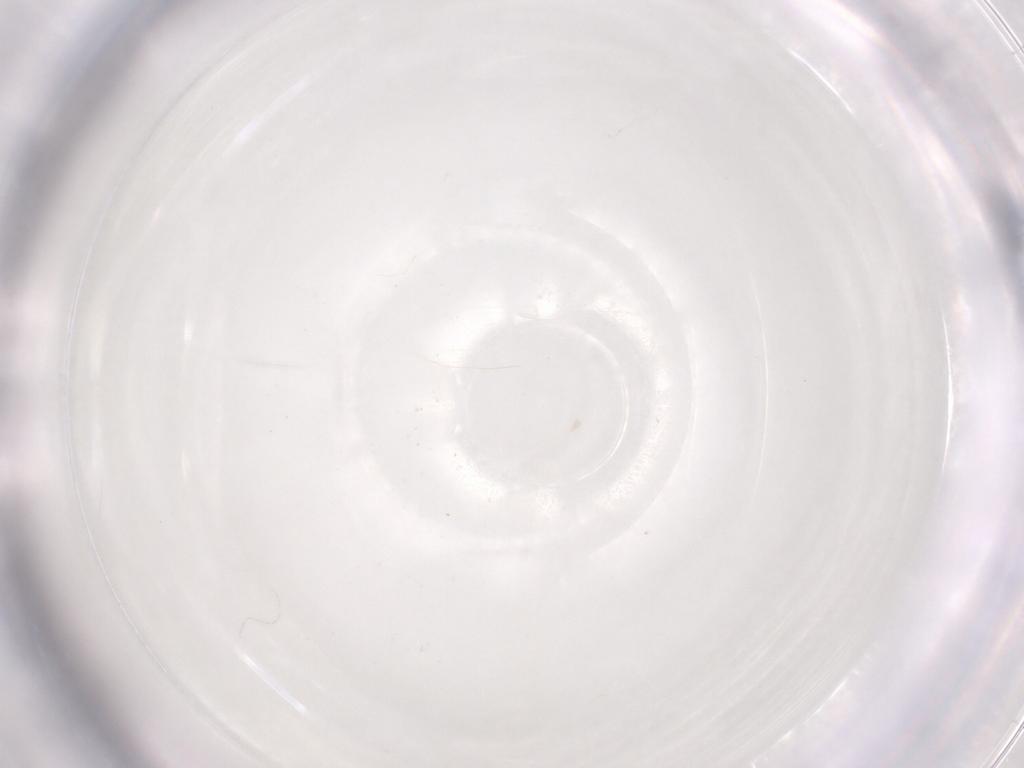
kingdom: Animalia
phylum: Arthropoda
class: Insecta
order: Diptera
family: Cecidomyiidae
